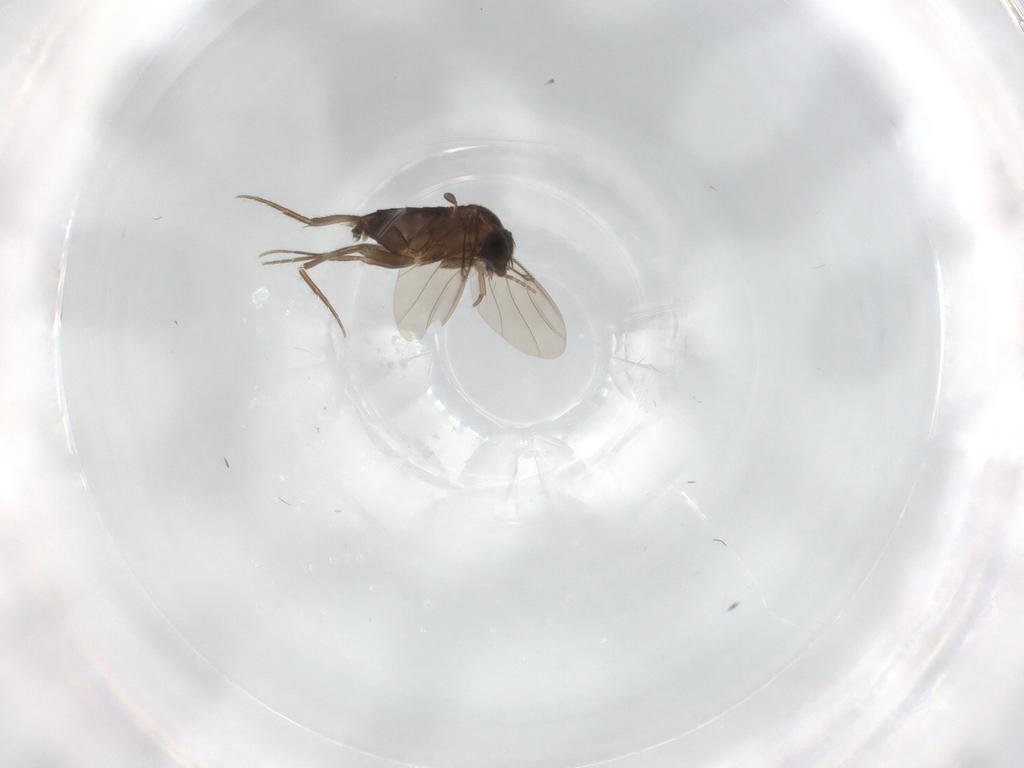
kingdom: Animalia
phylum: Arthropoda
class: Insecta
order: Diptera
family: Phoridae
